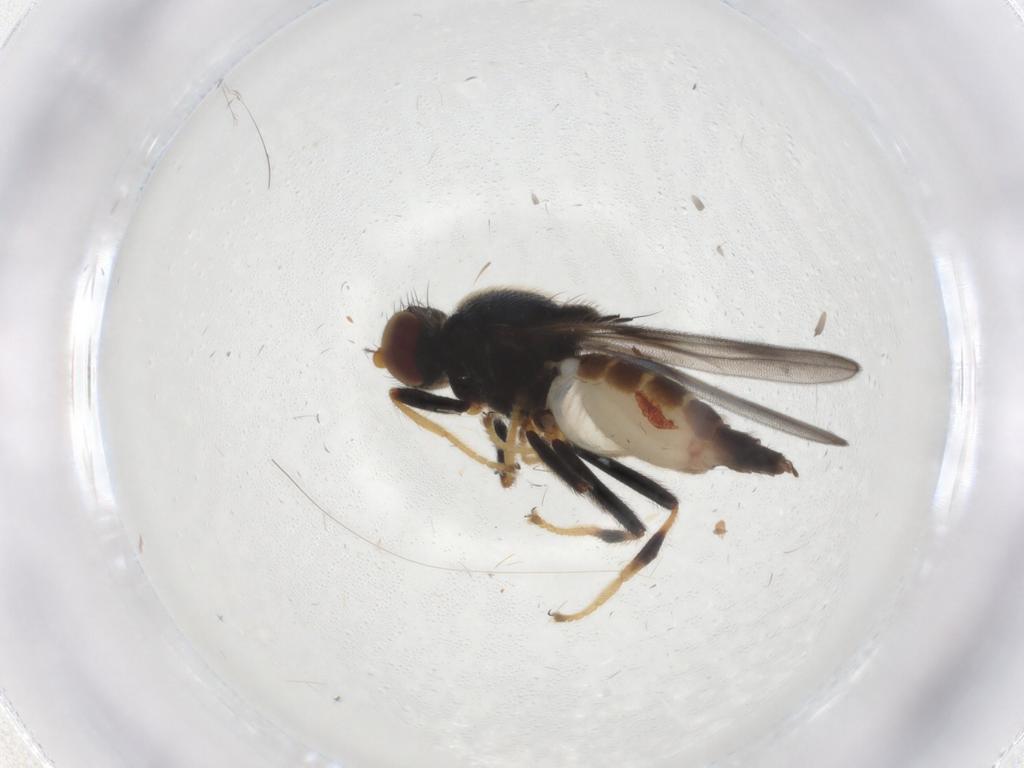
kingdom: Animalia
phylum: Arthropoda
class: Insecta
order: Diptera
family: Chloropidae
